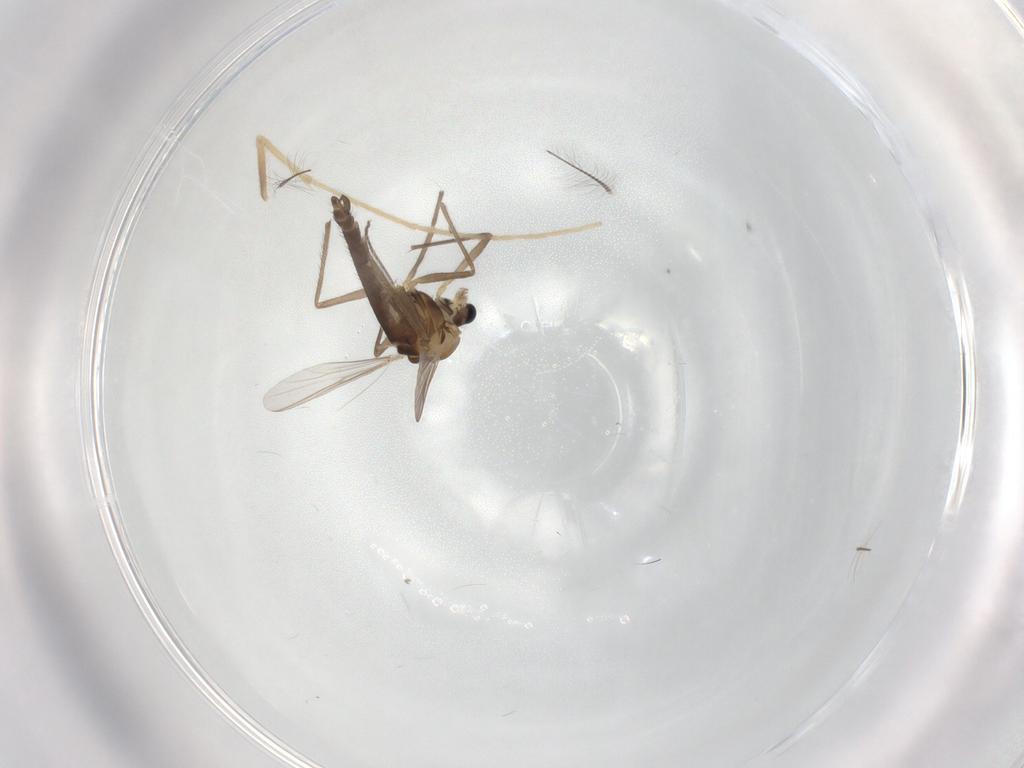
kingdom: Animalia
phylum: Arthropoda
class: Insecta
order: Diptera
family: Chironomidae
